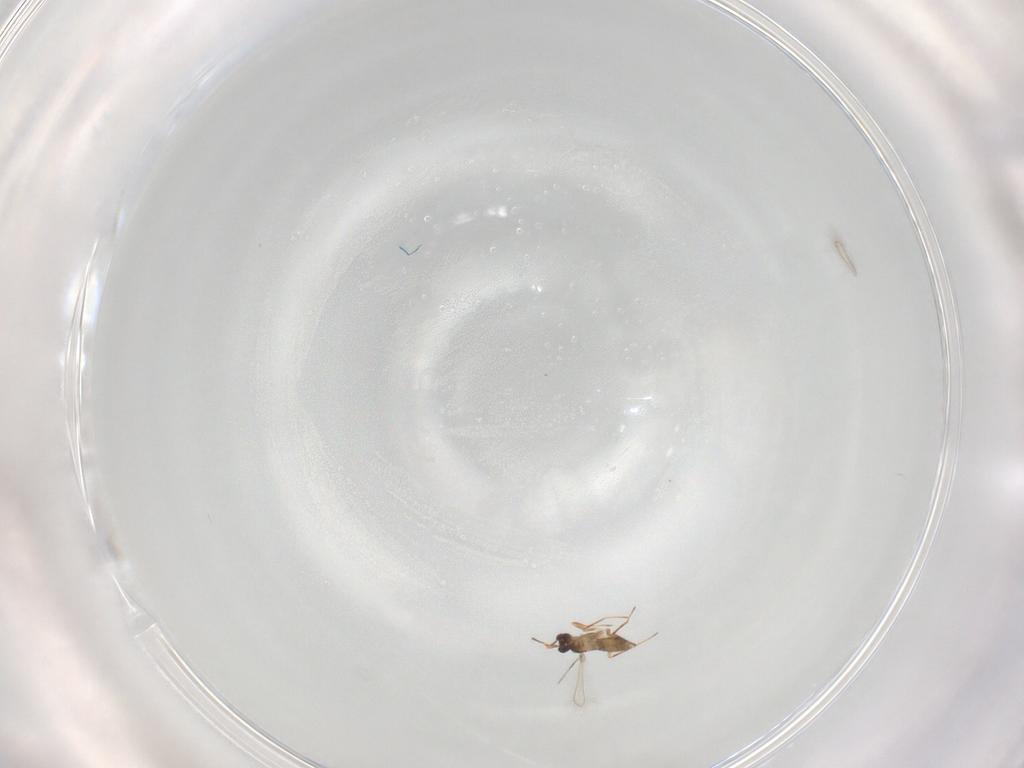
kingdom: Animalia
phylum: Arthropoda
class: Insecta
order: Hymenoptera
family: Mymaridae
